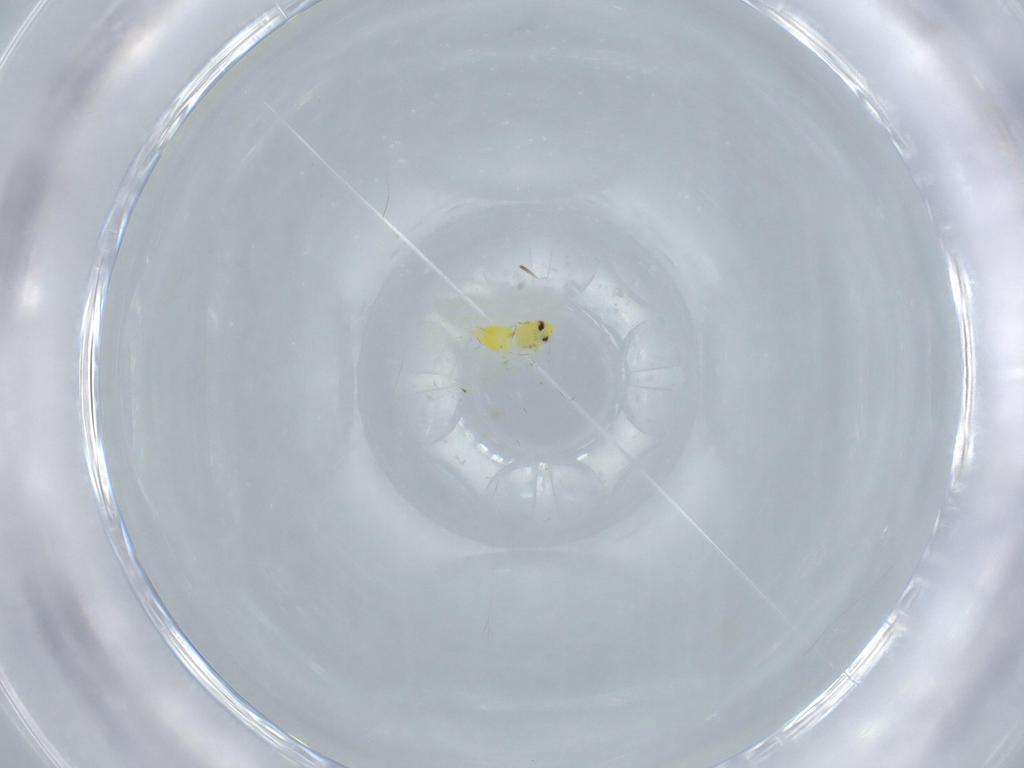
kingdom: Animalia
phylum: Arthropoda
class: Insecta
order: Hemiptera
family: Aleyrodidae
